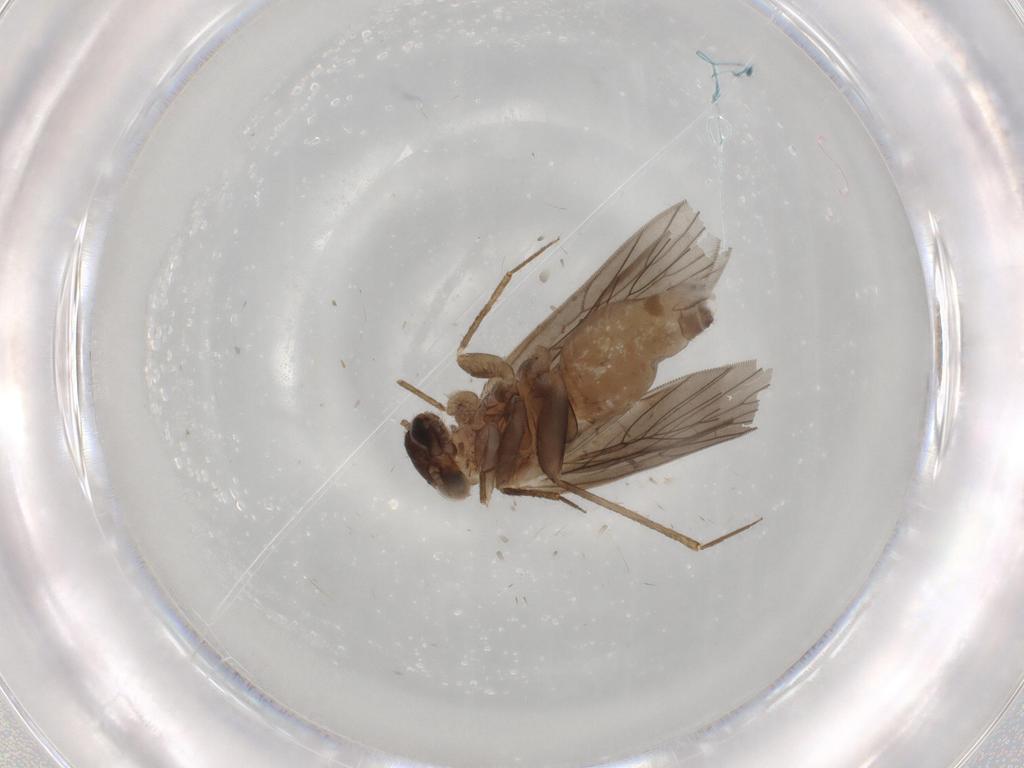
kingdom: Animalia
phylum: Arthropoda
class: Insecta
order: Psocodea
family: Lepidopsocidae
